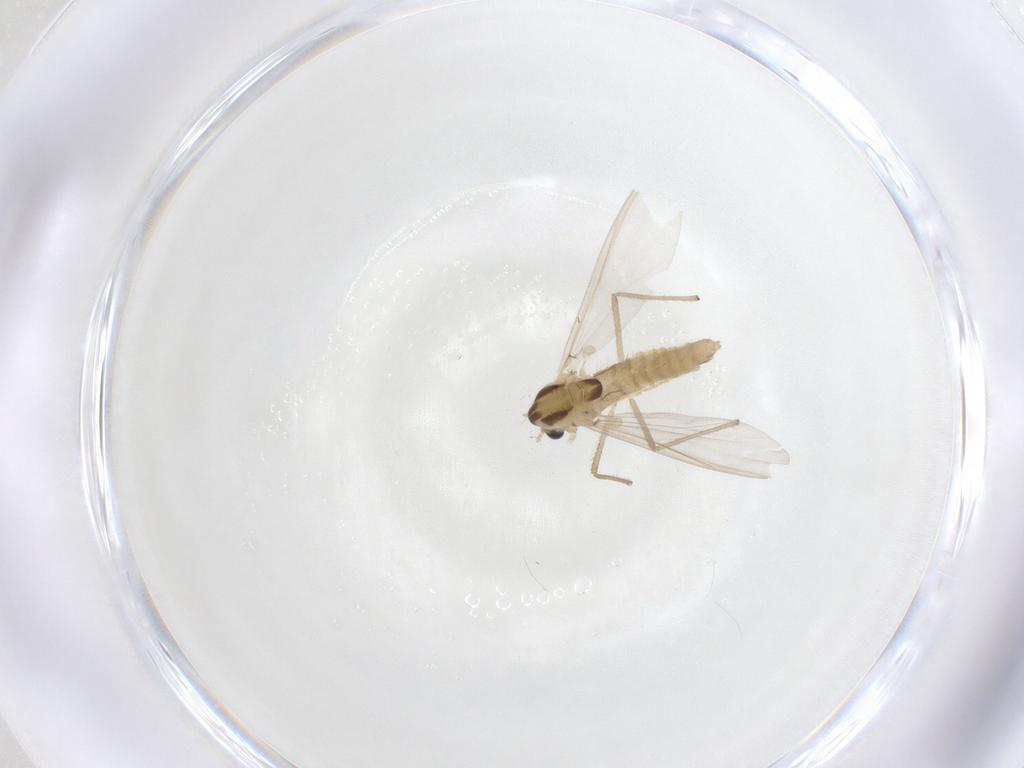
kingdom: Animalia
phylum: Arthropoda
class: Insecta
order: Diptera
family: Chironomidae
